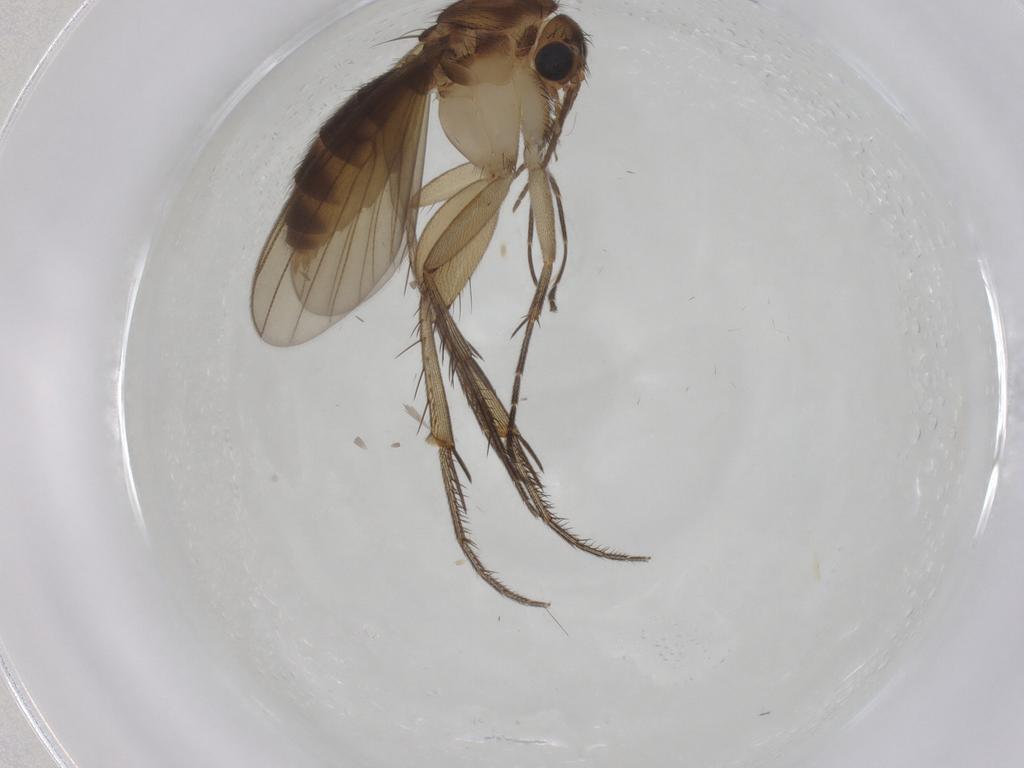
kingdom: Animalia
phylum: Arthropoda
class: Insecta
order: Diptera
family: Mycetophilidae
